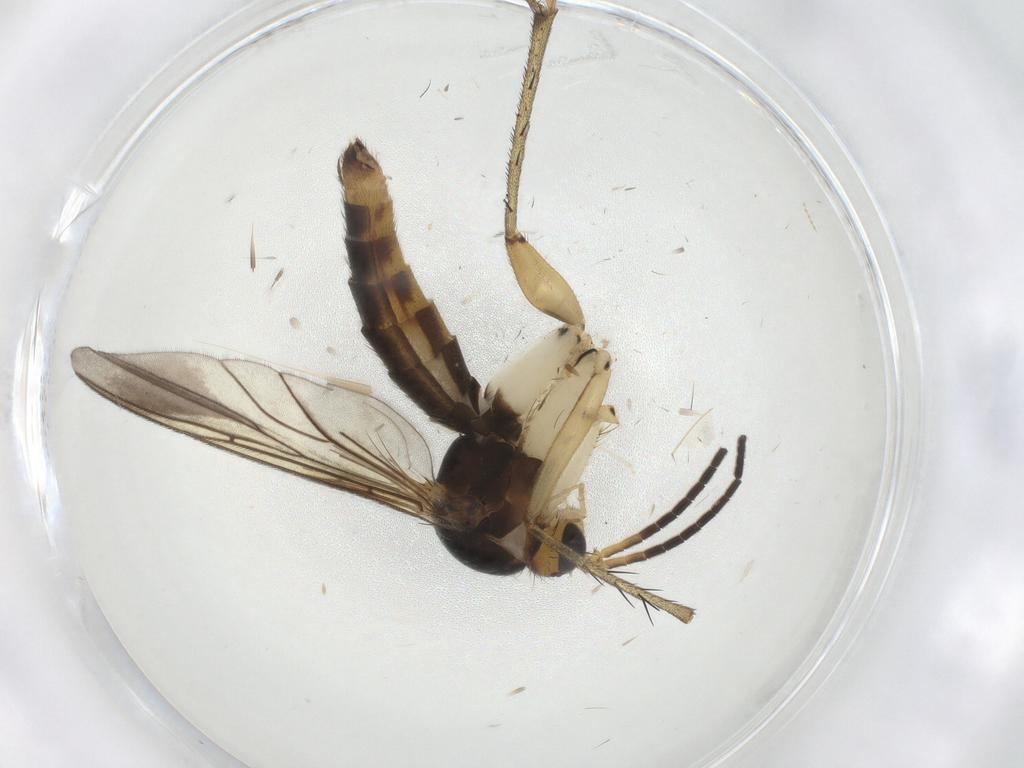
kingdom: Animalia
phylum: Arthropoda
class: Insecta
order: Diptera
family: Mycetophilidae
